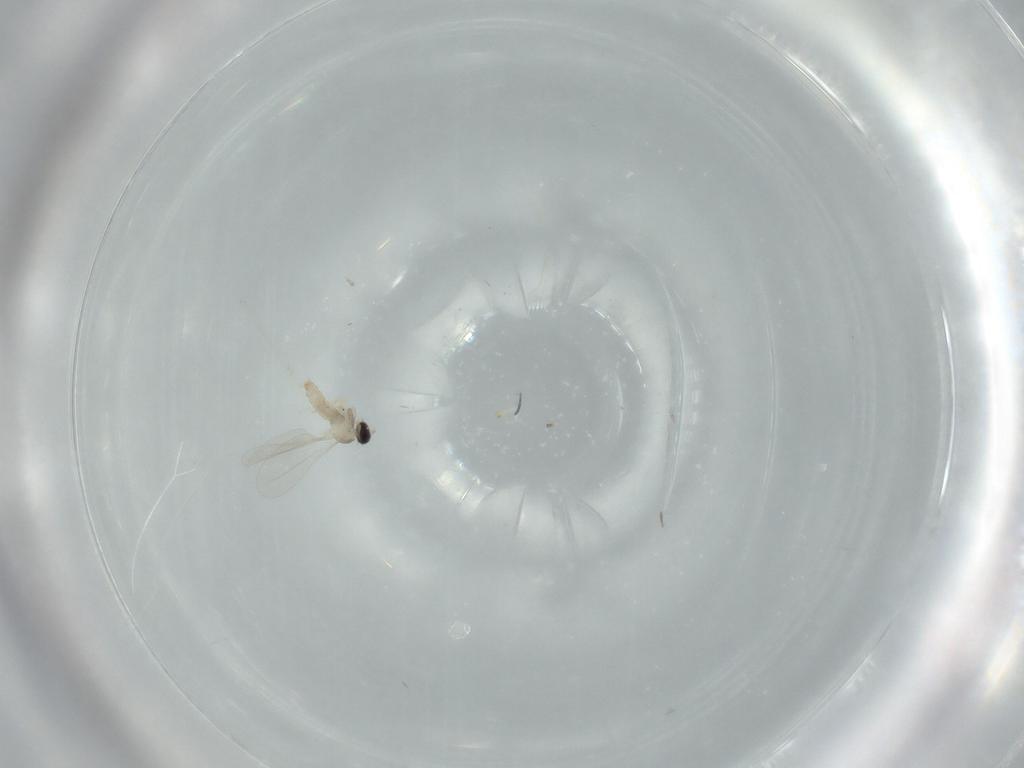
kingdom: Animalia
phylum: Arthropoda
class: Insecta
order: Diptera
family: Cecidomyiidae
